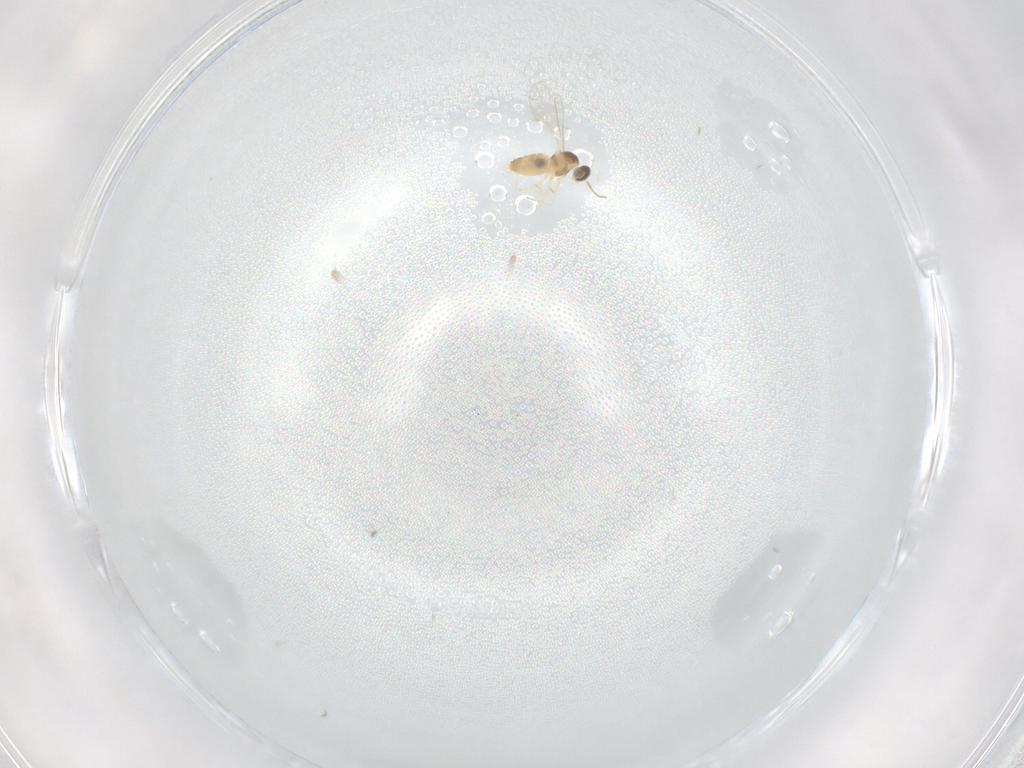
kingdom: Animalia
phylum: Arthropoda
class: Insecta
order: Diptera
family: Cecidomyiidae
